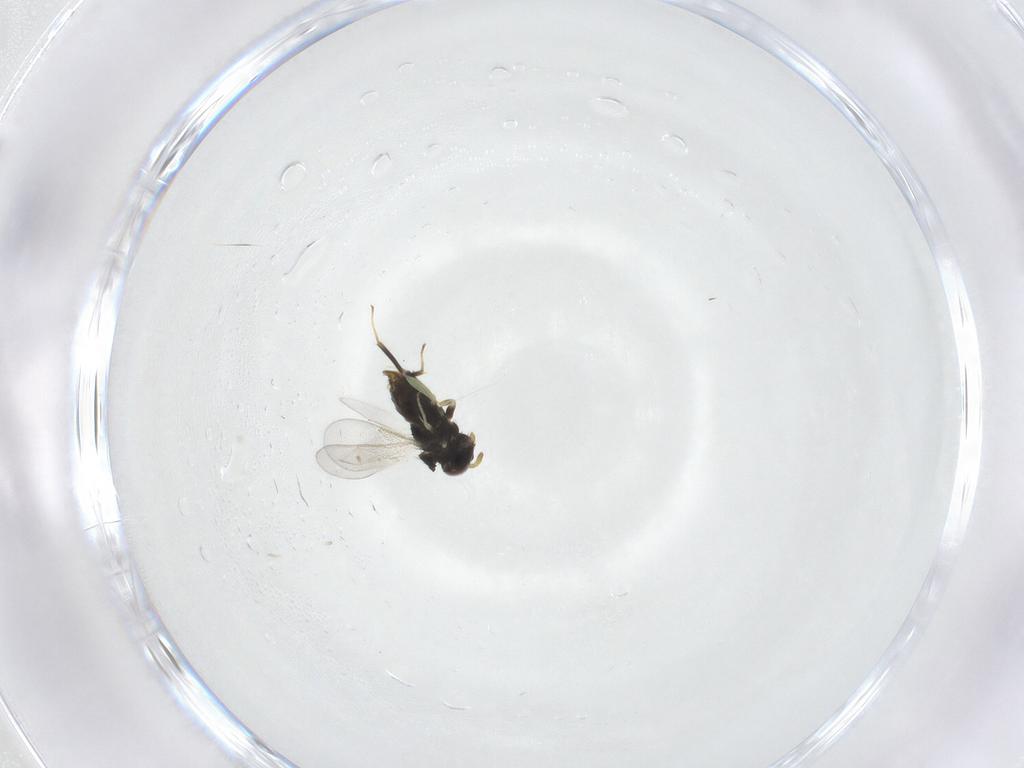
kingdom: Animalia
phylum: Arthropoda
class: Insecta
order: Hymenoptera
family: Aphelinidae
